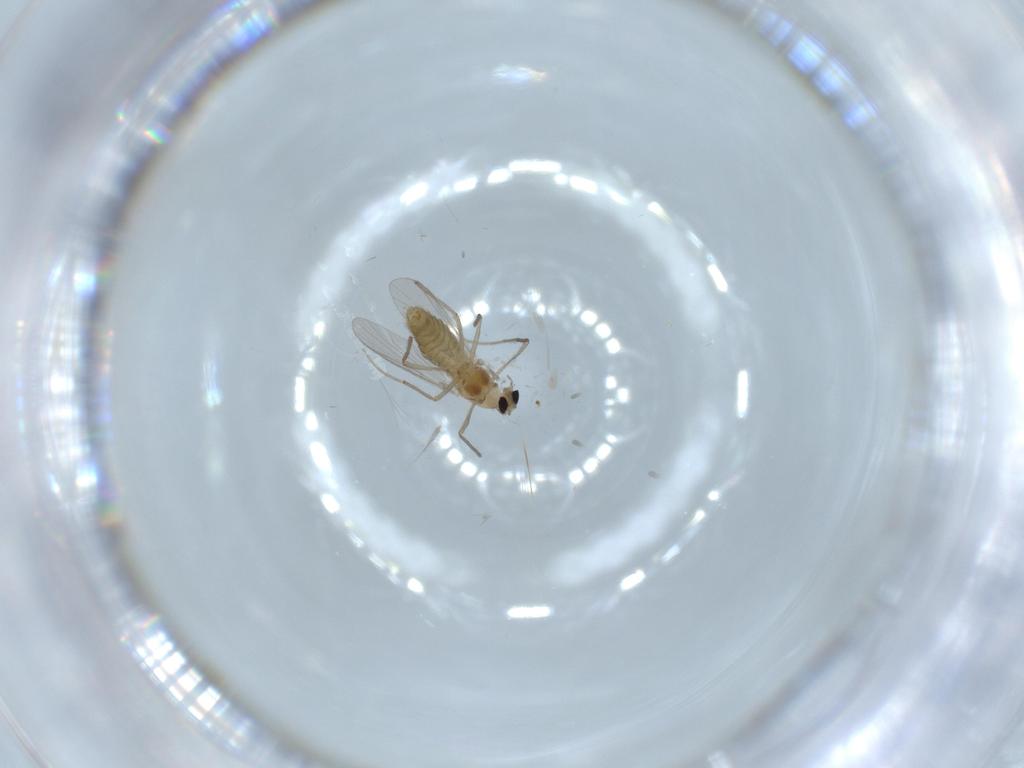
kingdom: Animalia
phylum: Arthropoda
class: Insecta
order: Diptera
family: Chironomidae
